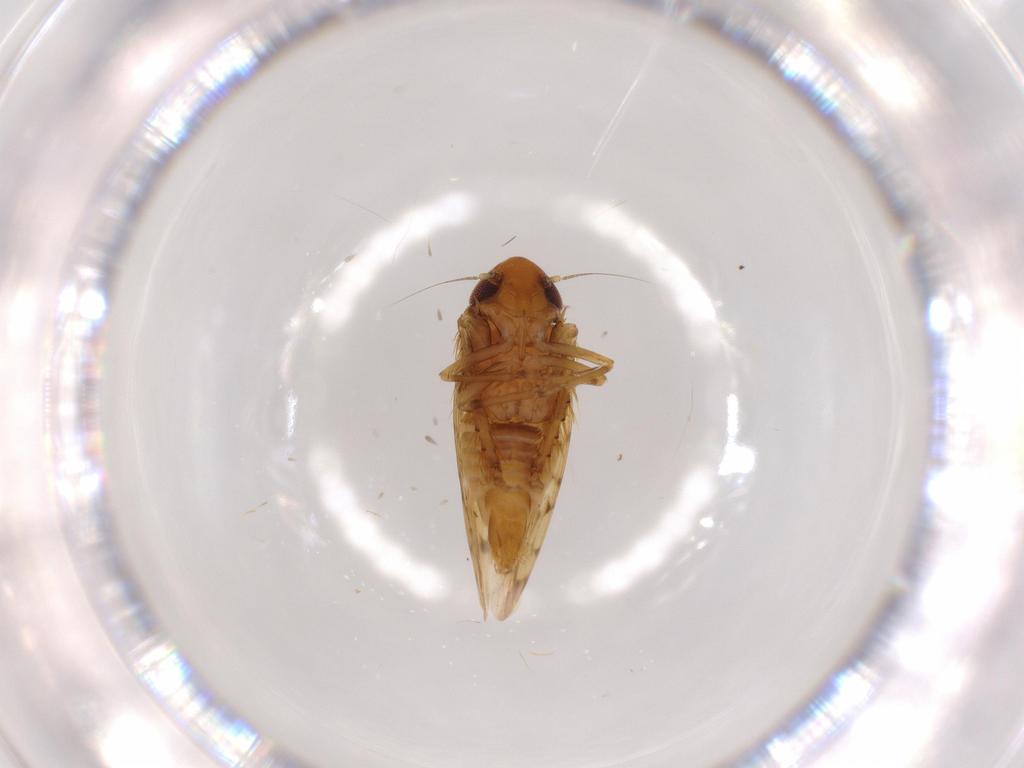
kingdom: Animalia
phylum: Arthropoda
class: Insecta
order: Hemiptera
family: Cicadellidae
